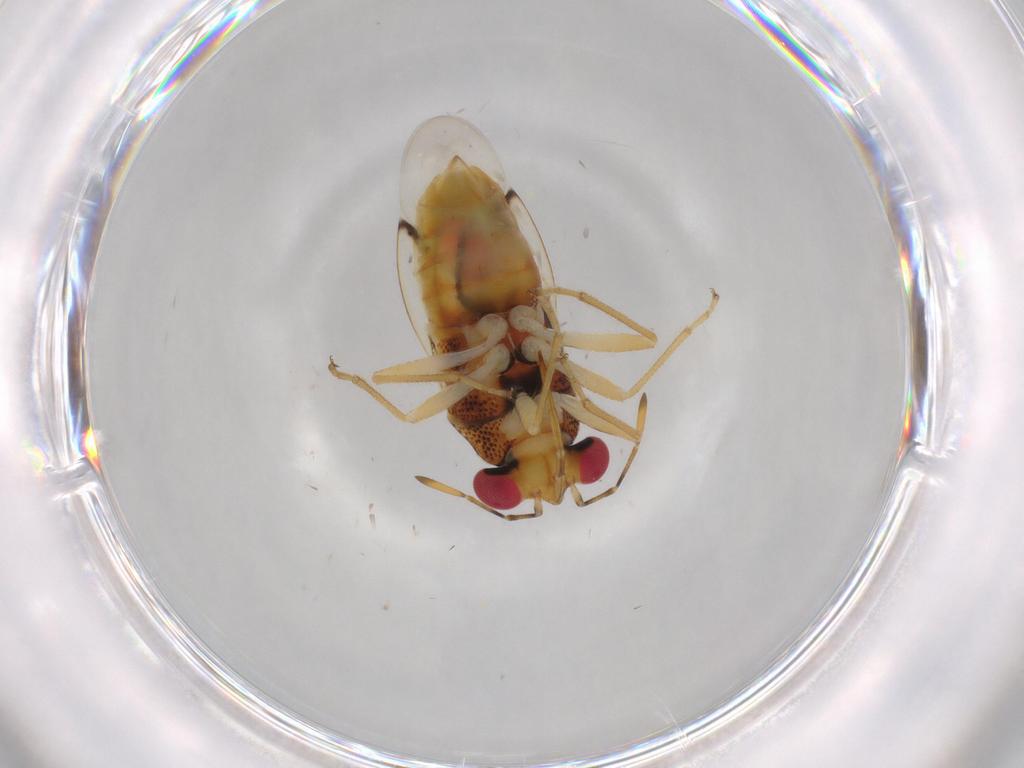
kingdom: Animalia
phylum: Arthropoda
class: Insecta
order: Hemiptera
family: Geocoridae
